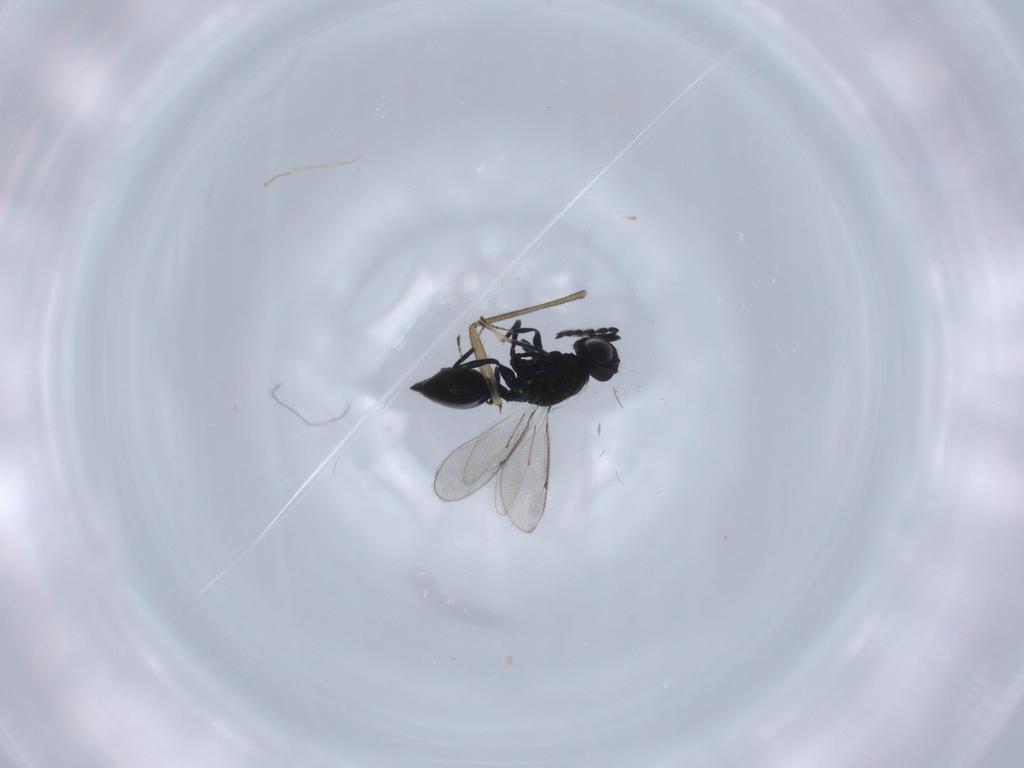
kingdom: Animalia
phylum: Arthropoda
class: Insecta
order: Hymenoptera
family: Eulophidae
